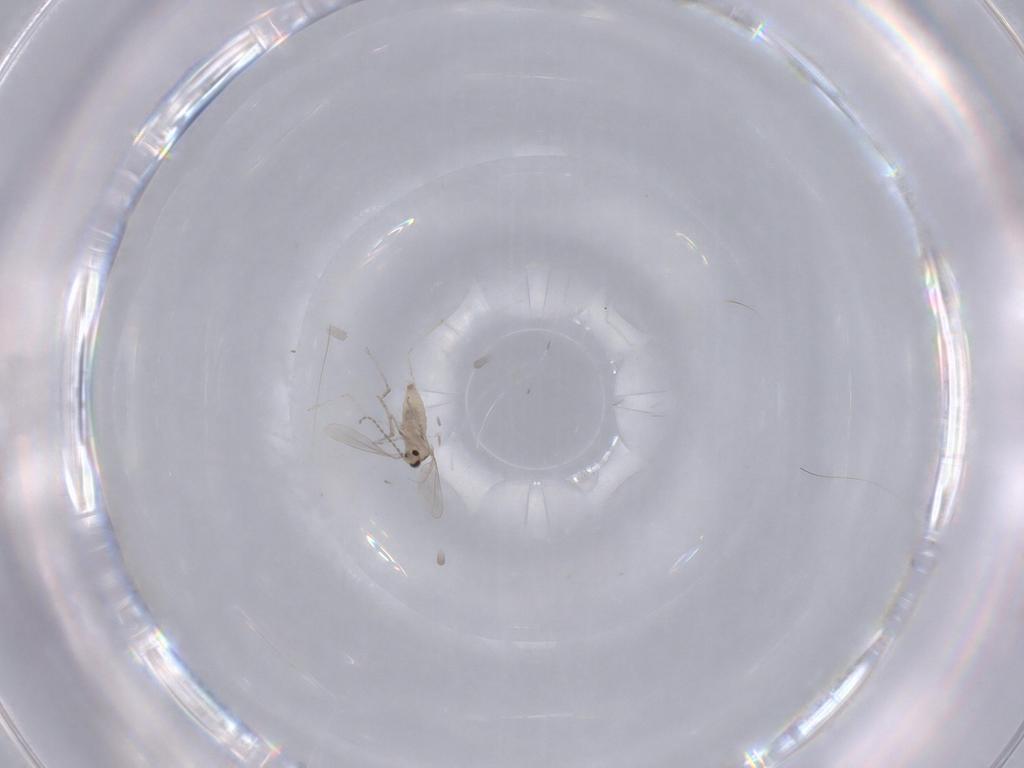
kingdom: Animalia
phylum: Arthropoda
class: Insecta
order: Diptera
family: Cecidomyiidae
